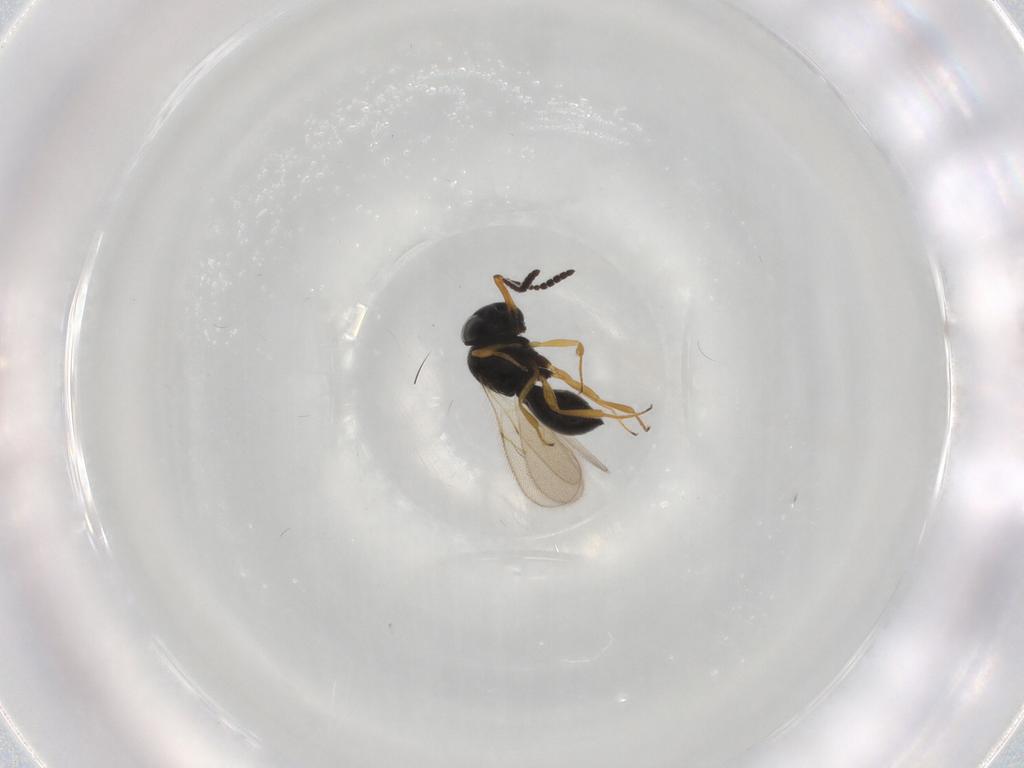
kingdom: Animalia
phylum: Arthropoda
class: Insecta
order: Hymenoptera
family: Scelionidae
